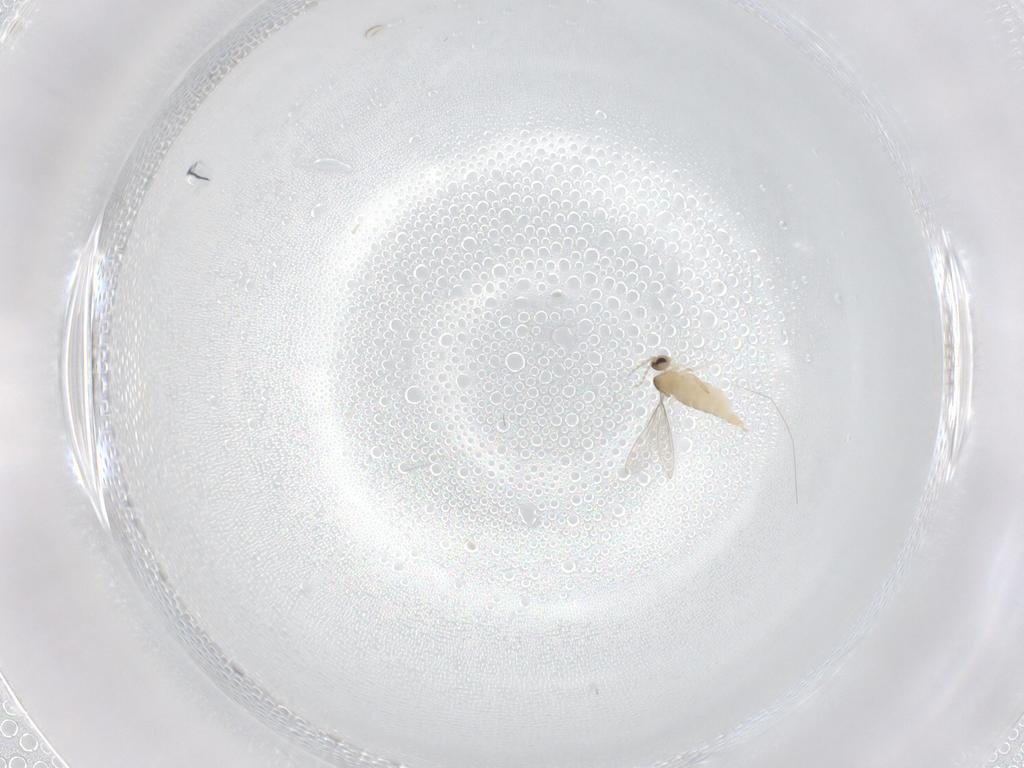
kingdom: Animalia
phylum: Arthropoda
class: Insecta
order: Diptera
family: Cecidomyiidae
